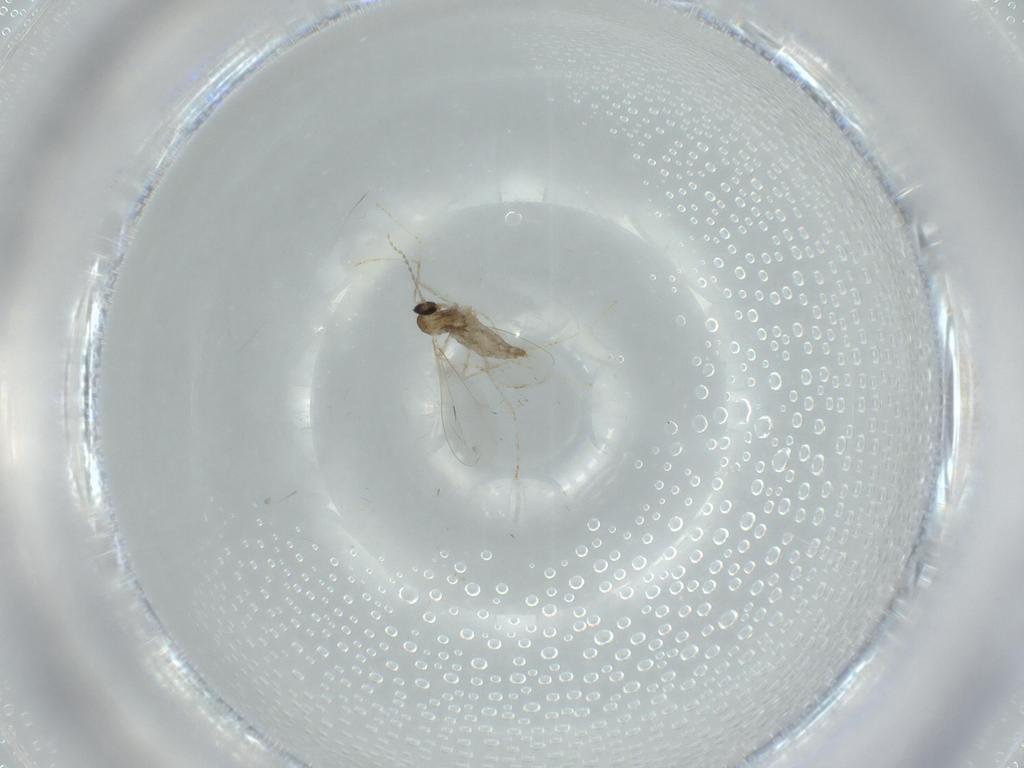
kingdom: Animalia
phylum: Arthropoda
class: Insecta
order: Diptera
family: Cecidomyiidae
